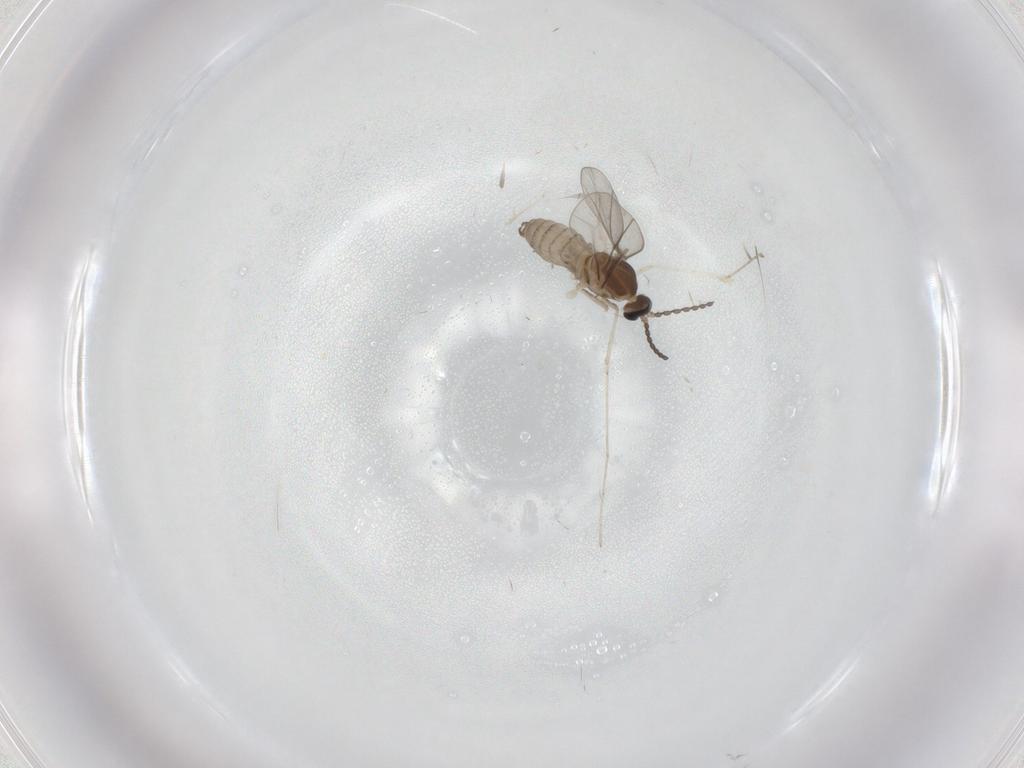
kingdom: Animalia
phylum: Arthropoda
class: Insecta
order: Diptera
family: Cecidomyiidae
